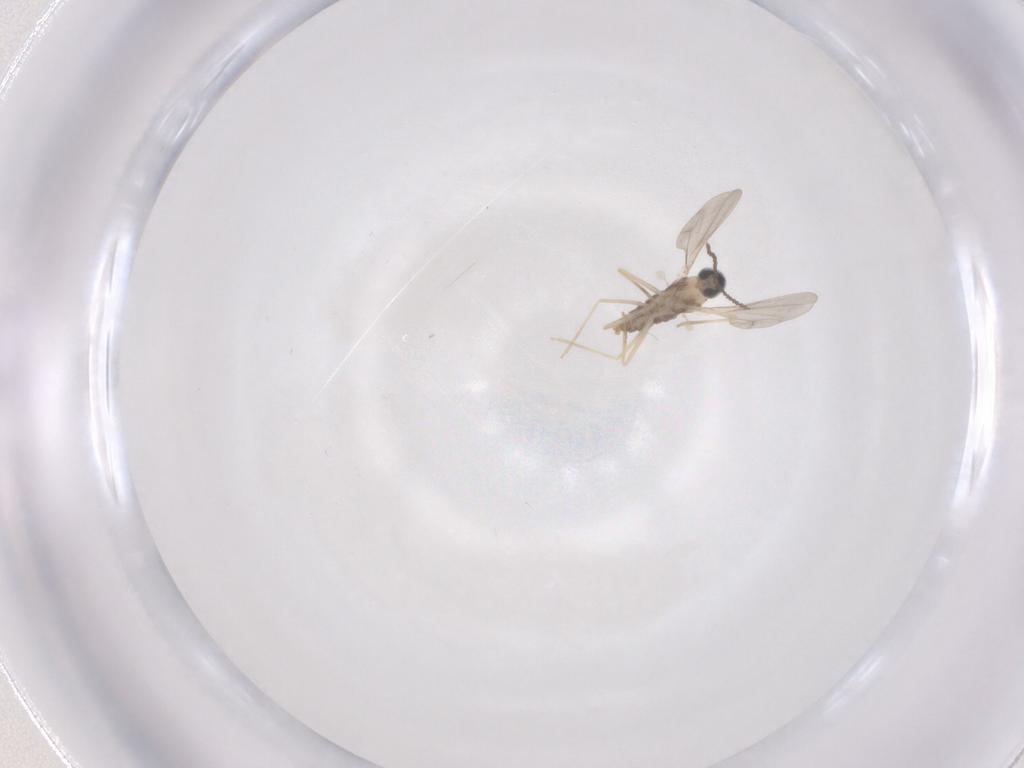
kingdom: Animalia
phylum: Arthropoda
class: Insecta
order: Diptera
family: Cecidomyiidae
